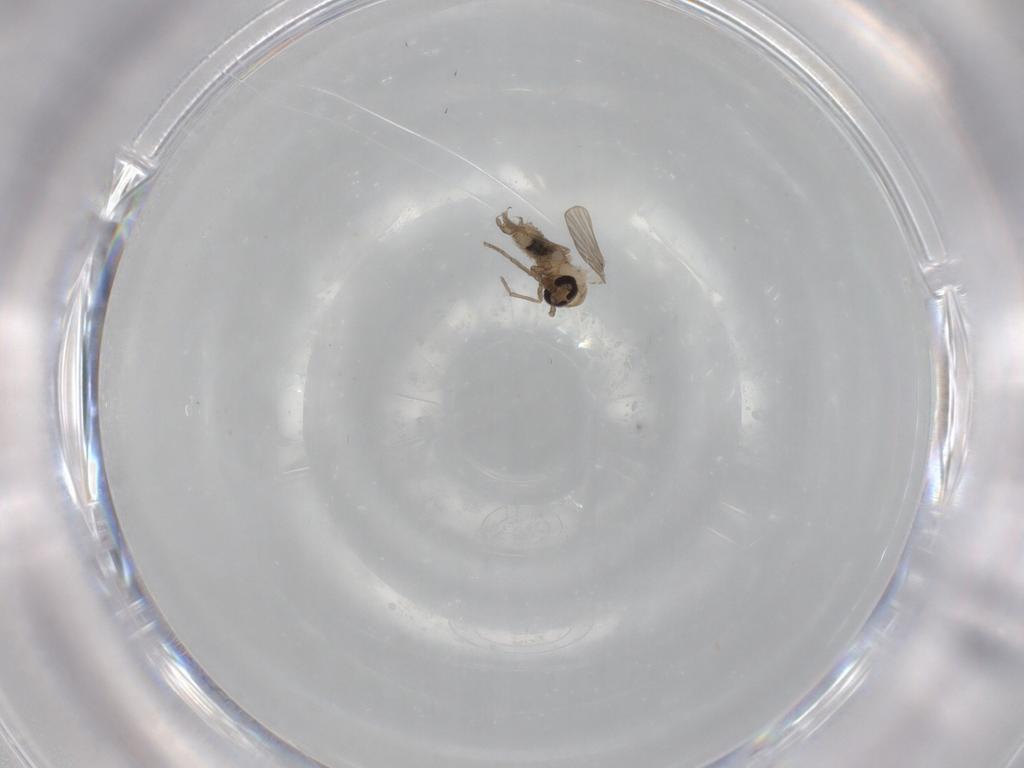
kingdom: Animalia
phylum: Arthropoda
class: Insecta
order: Diptera
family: Psychodidae
